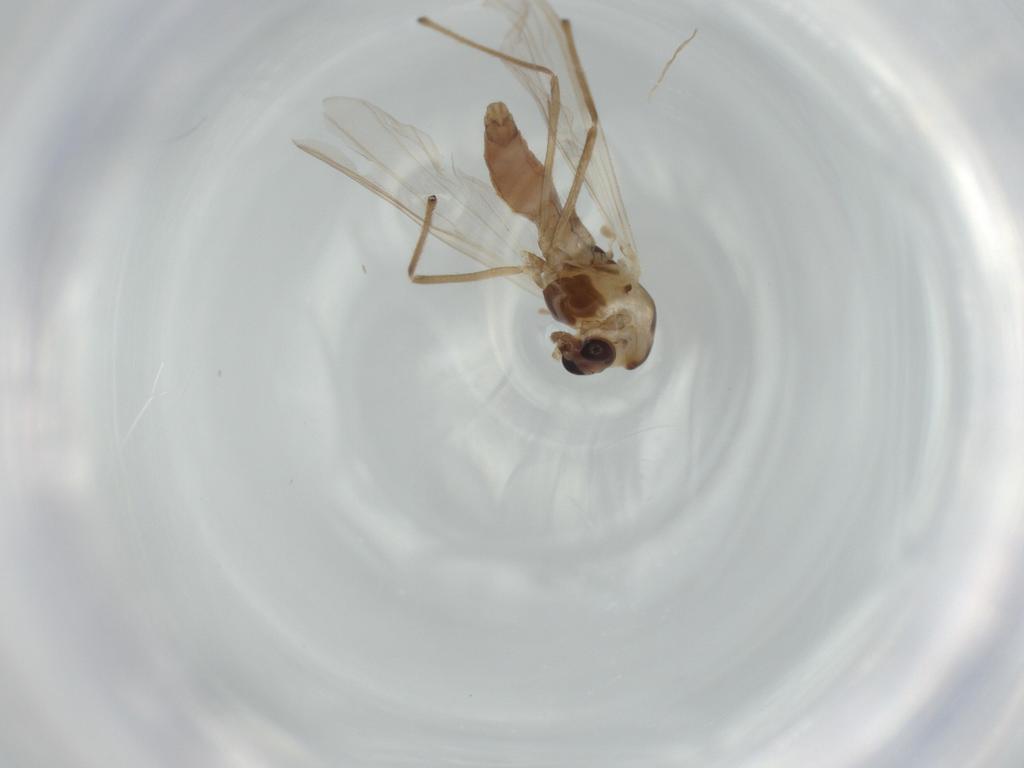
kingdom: Animalia
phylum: Arthropoda
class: Insecta
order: Diptera
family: Chironomidae
